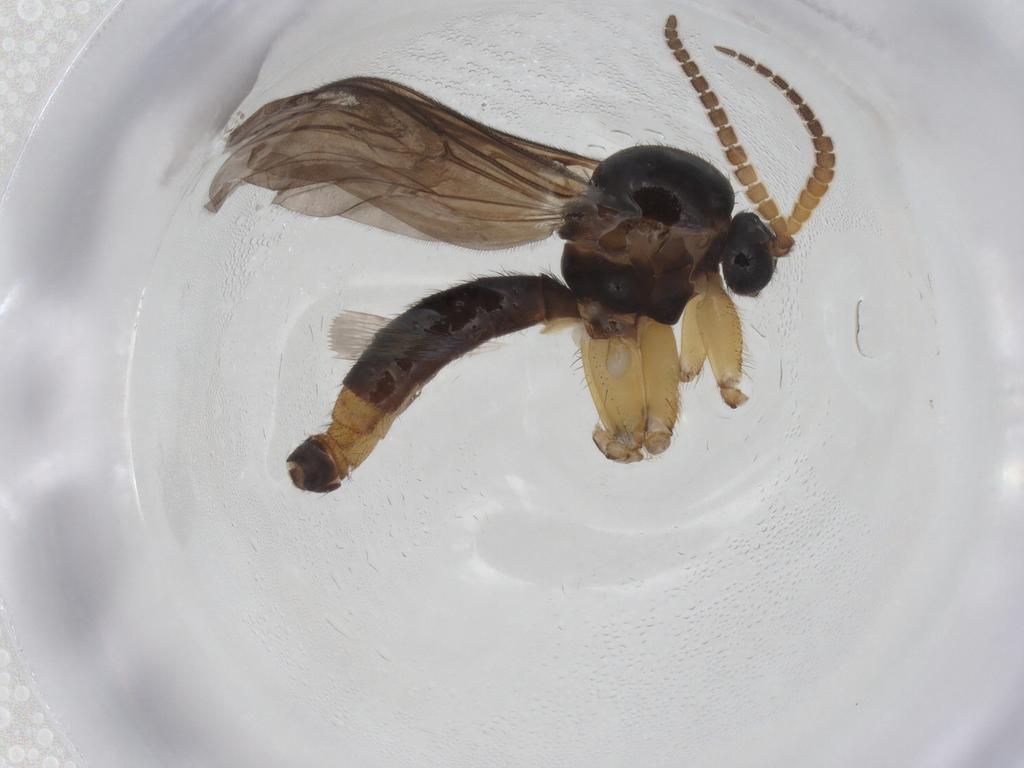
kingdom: Animalia
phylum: Arthropoda
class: Insecta
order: Diptera
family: Mycetophilidae
